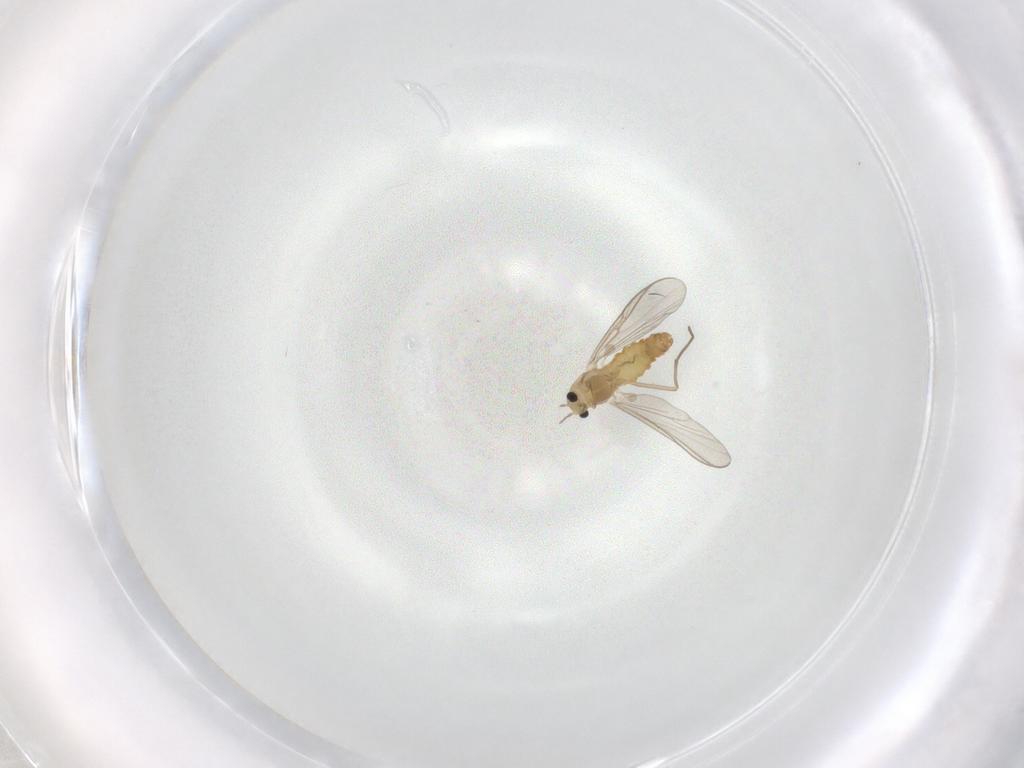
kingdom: Animalia
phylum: Arthropoda
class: Insecta
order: Diptera
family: Chironomidae
